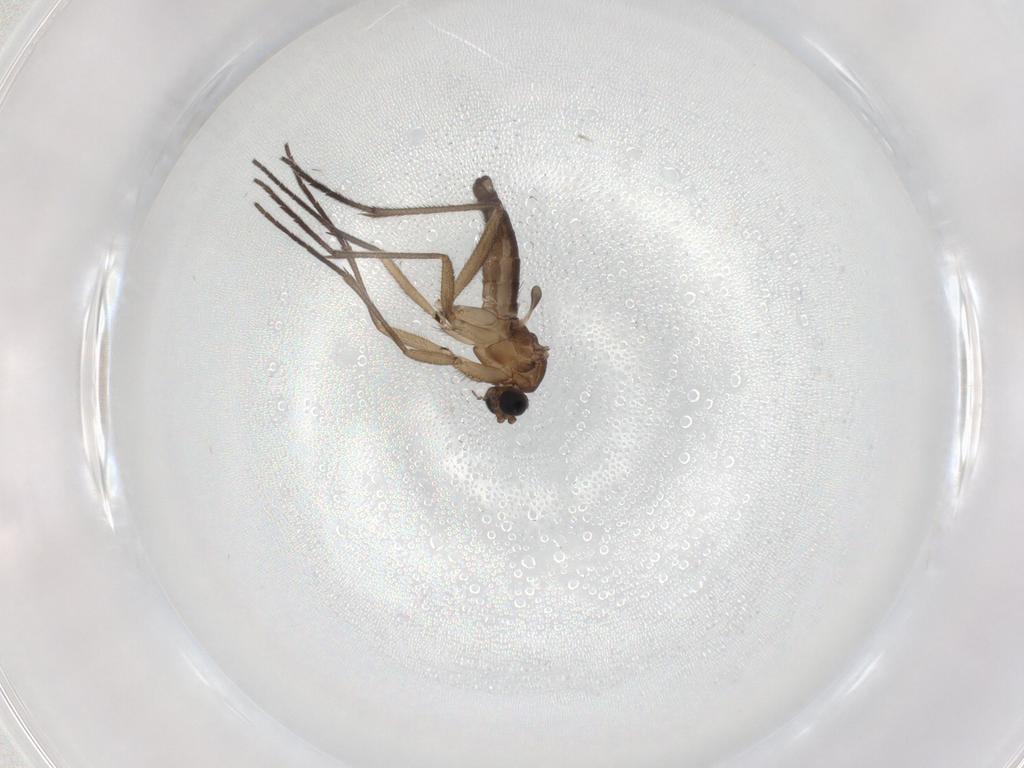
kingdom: Animalia
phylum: Arthropoda
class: Insecta
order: Diptera
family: Sciaridae
